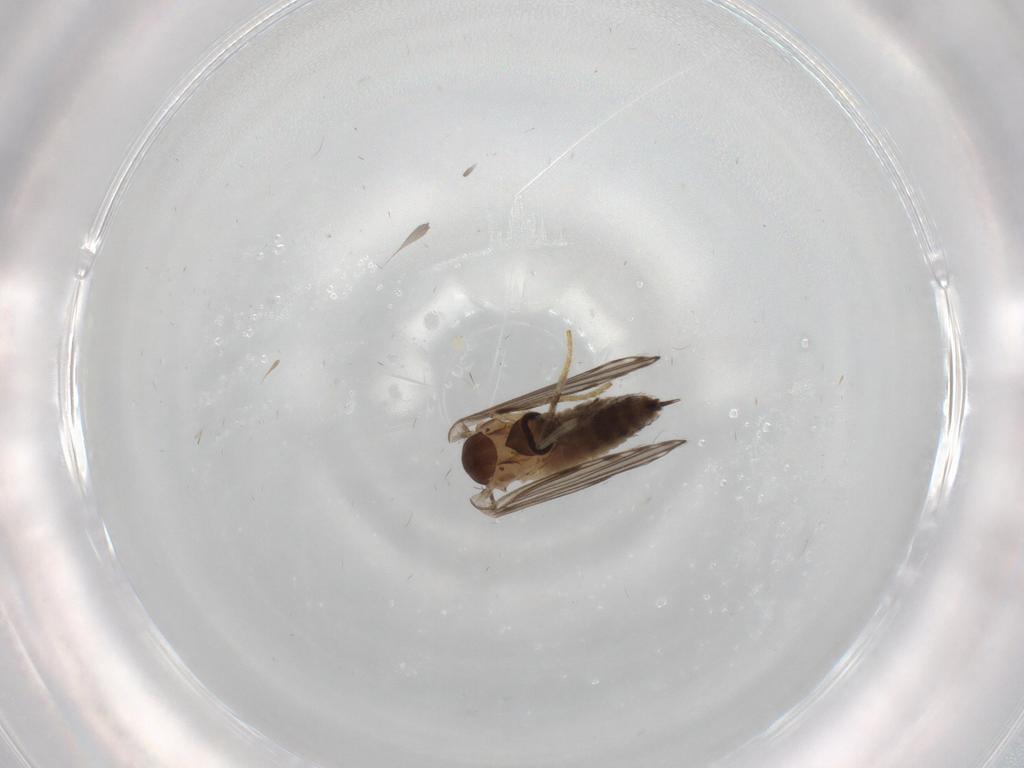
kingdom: Animalia
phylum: Arthropoda
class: Insecta
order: Diptera
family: Psychodidae
